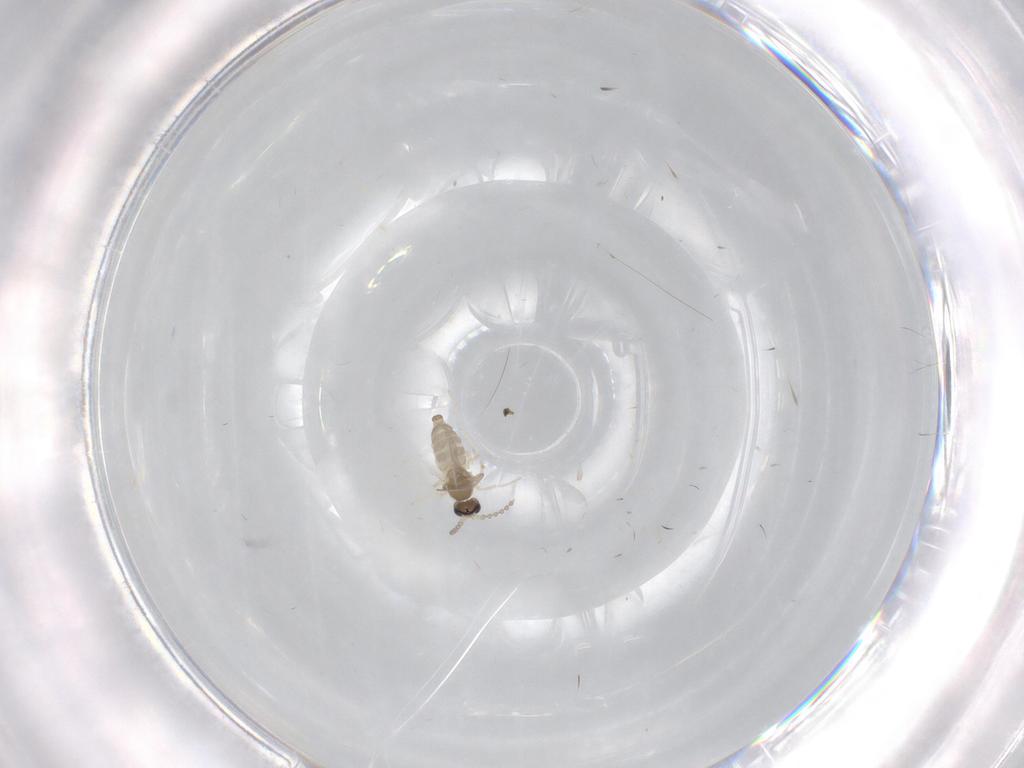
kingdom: Animalia
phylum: Arthropoda
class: Insecta
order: Diptera
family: Cecidomyiidae
